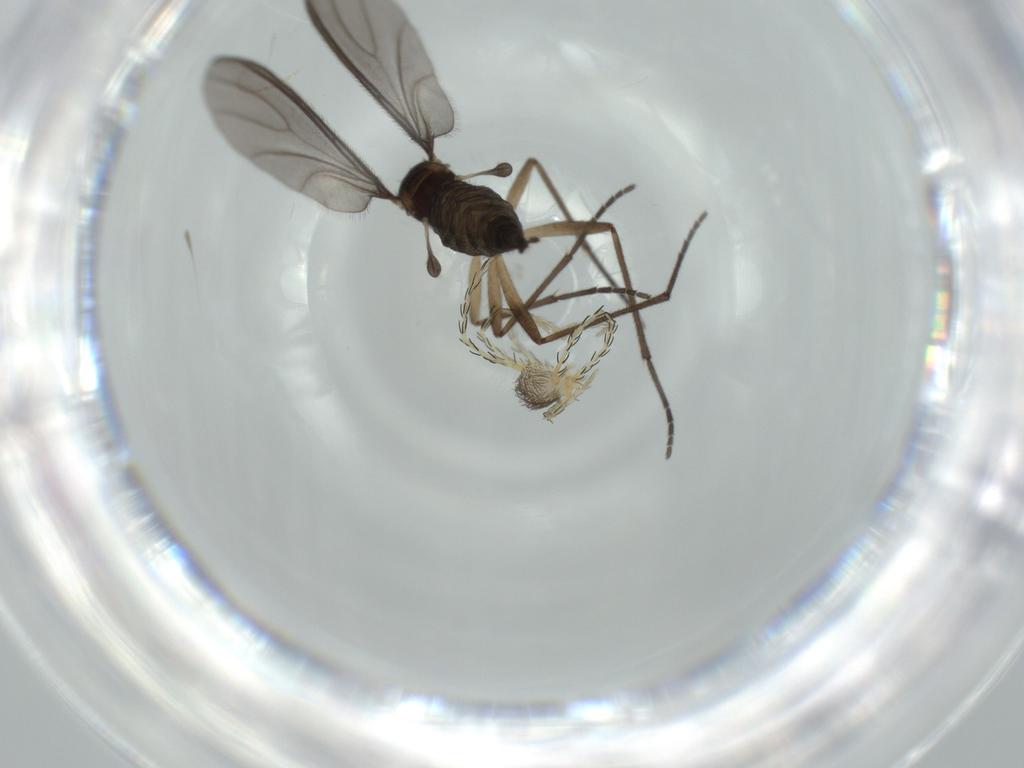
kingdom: Animalia
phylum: Arthropoda
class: Insecta
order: Diptera
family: Sciaridae
